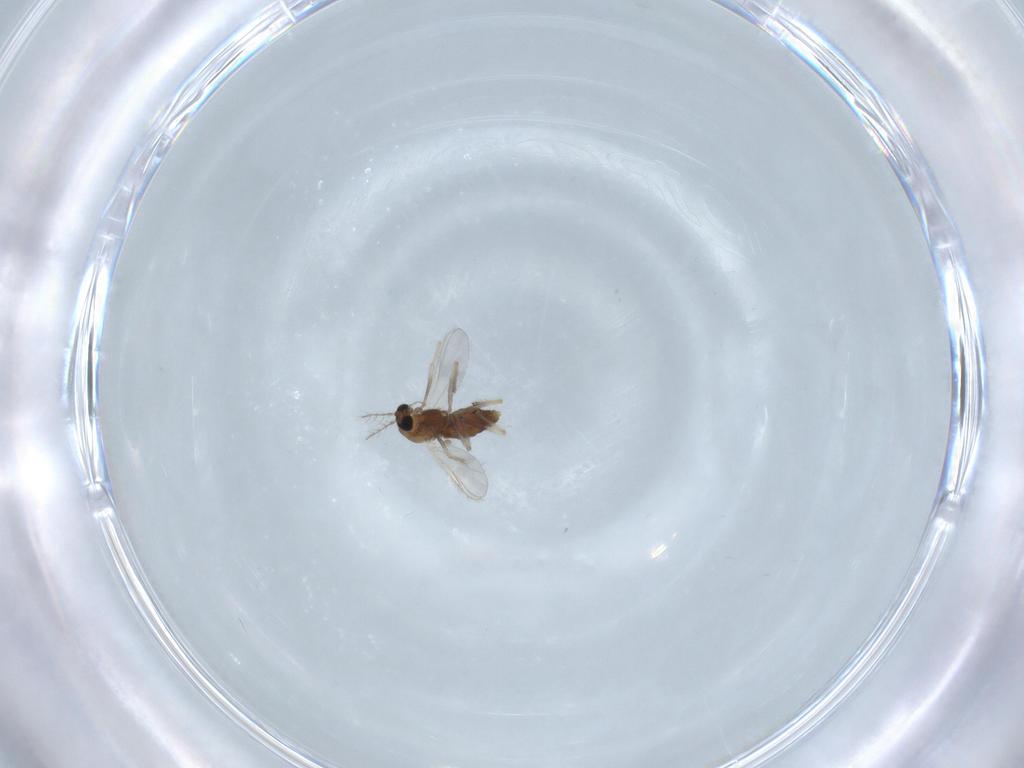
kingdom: Animalia
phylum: Arthropoda
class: Insecta
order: Diptera
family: Chironomidae
